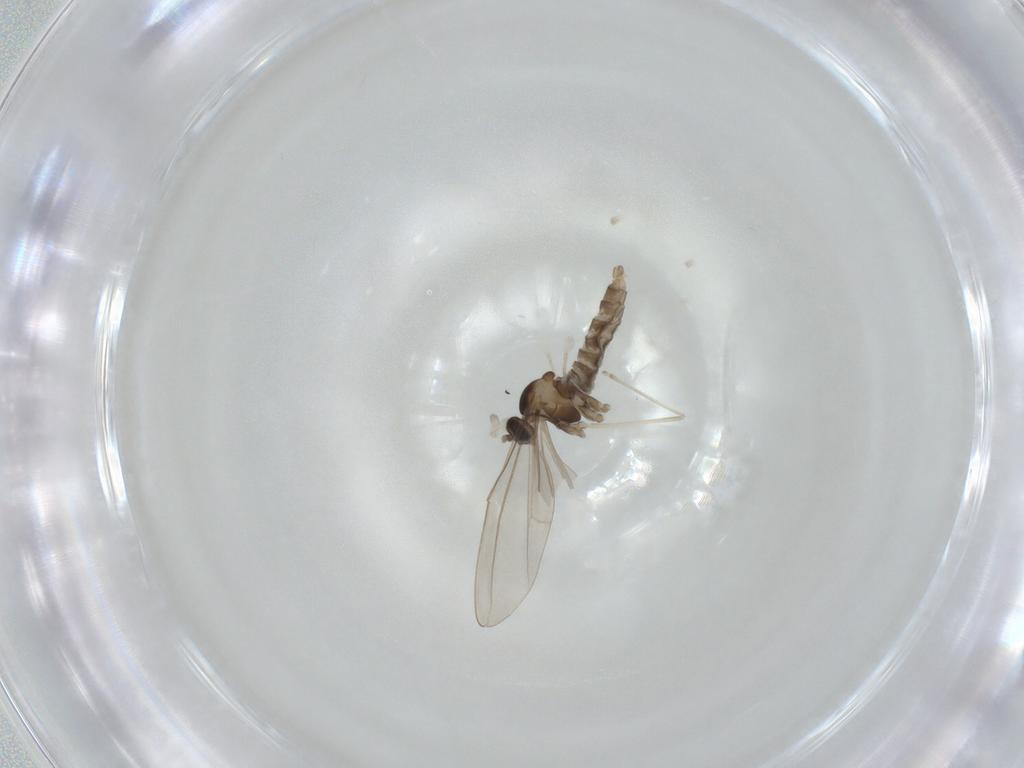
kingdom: Animalia
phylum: Arthropoda
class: Insecta
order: Diptera
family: Cecidomyiidae
